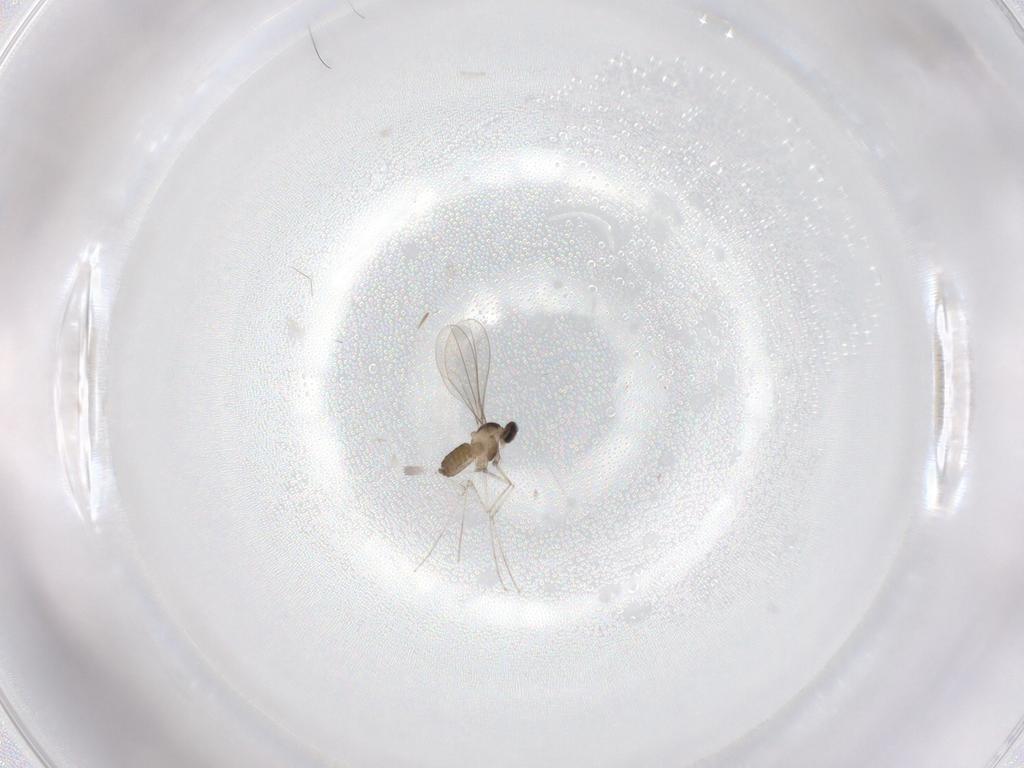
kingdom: Animalia
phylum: Arthropoda
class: Insecta
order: Diptera
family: Cecidomyiidae
